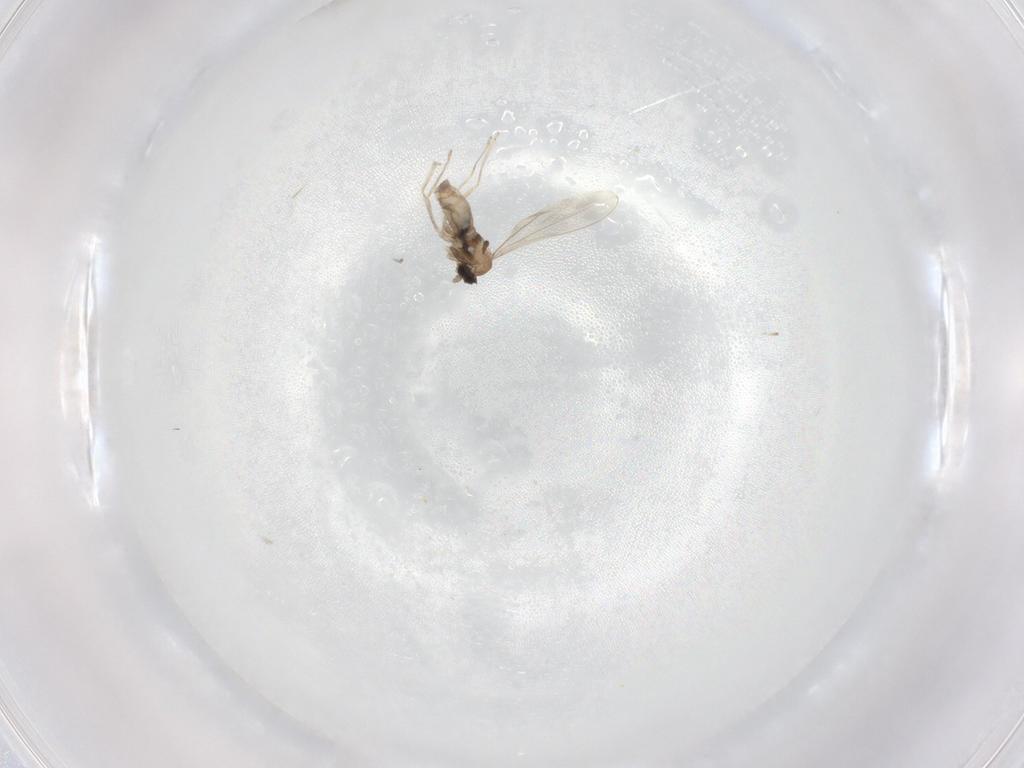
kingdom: Animalia
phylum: Arthropoda
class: Insecta
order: Diptera
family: Cecidomyiidae
